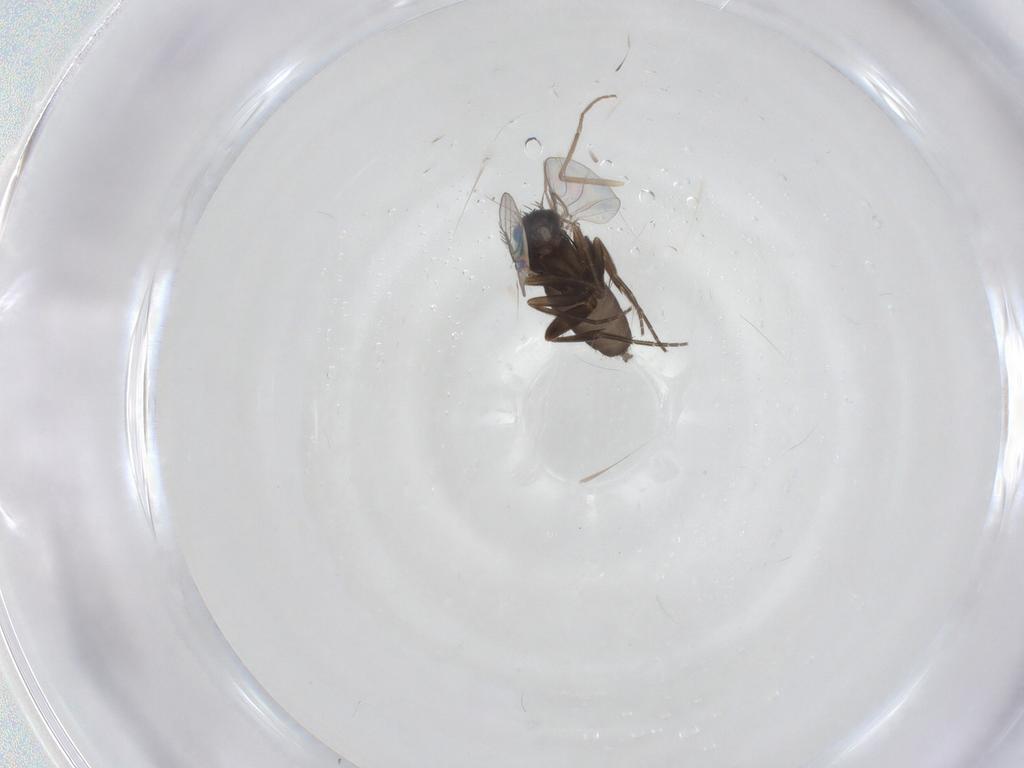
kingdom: Animalia
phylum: Arthropoda
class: Insecta
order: Diptera
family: Phoridae
